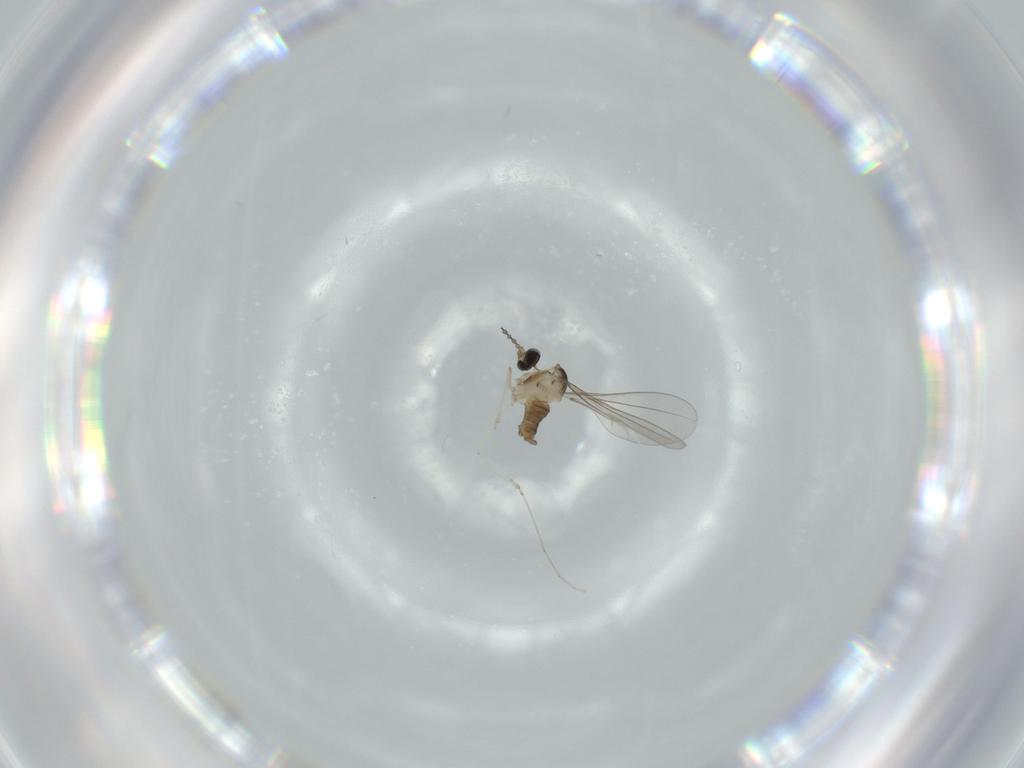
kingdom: Animalia
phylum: Arthropoda
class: Insecta
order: Diptera
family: Cecidomyiidae
